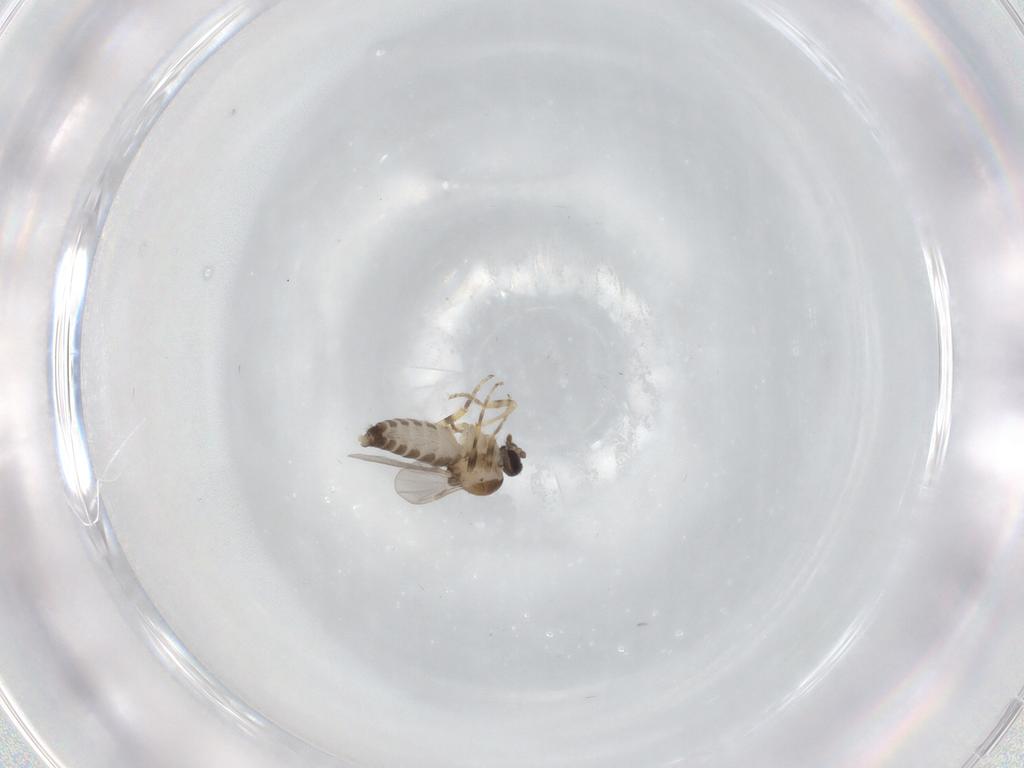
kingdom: Animalia
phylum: Arthropoda
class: Insecta
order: Diptera
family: Ceratopogonidae
